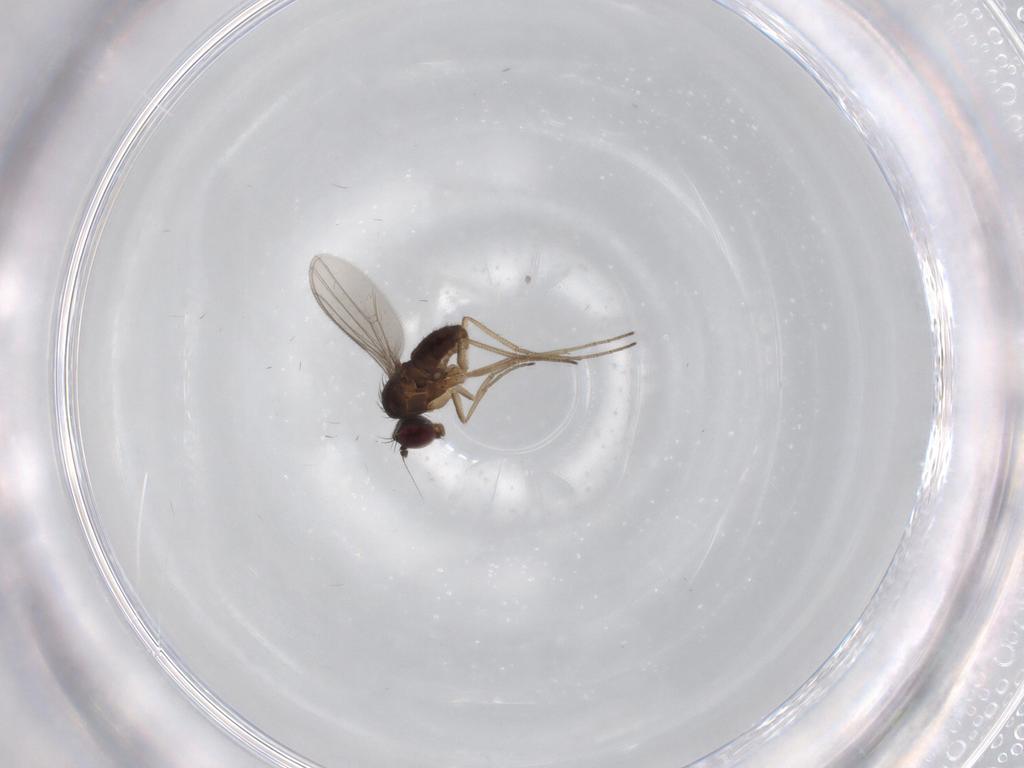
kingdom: Animalia
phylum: Arthropoda
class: Insecta
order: Diptera
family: Dolichopodidae
